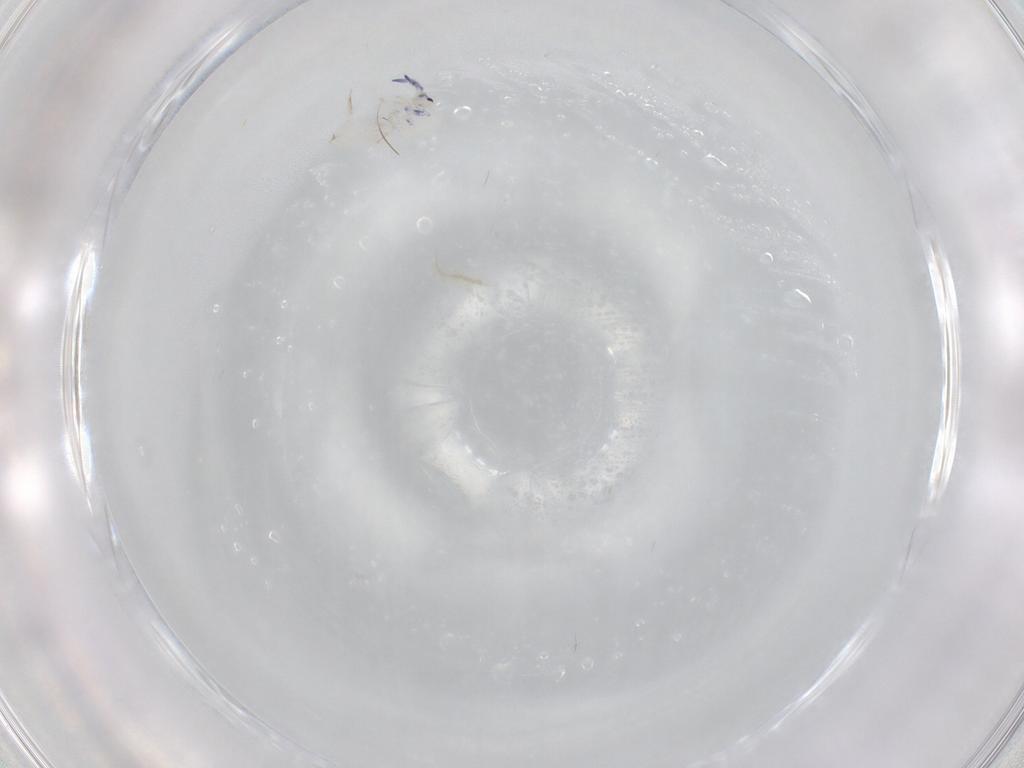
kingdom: Animalia
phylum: Arthropoda
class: Collembola
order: Entomobryomorpha
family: Entomobryidae
